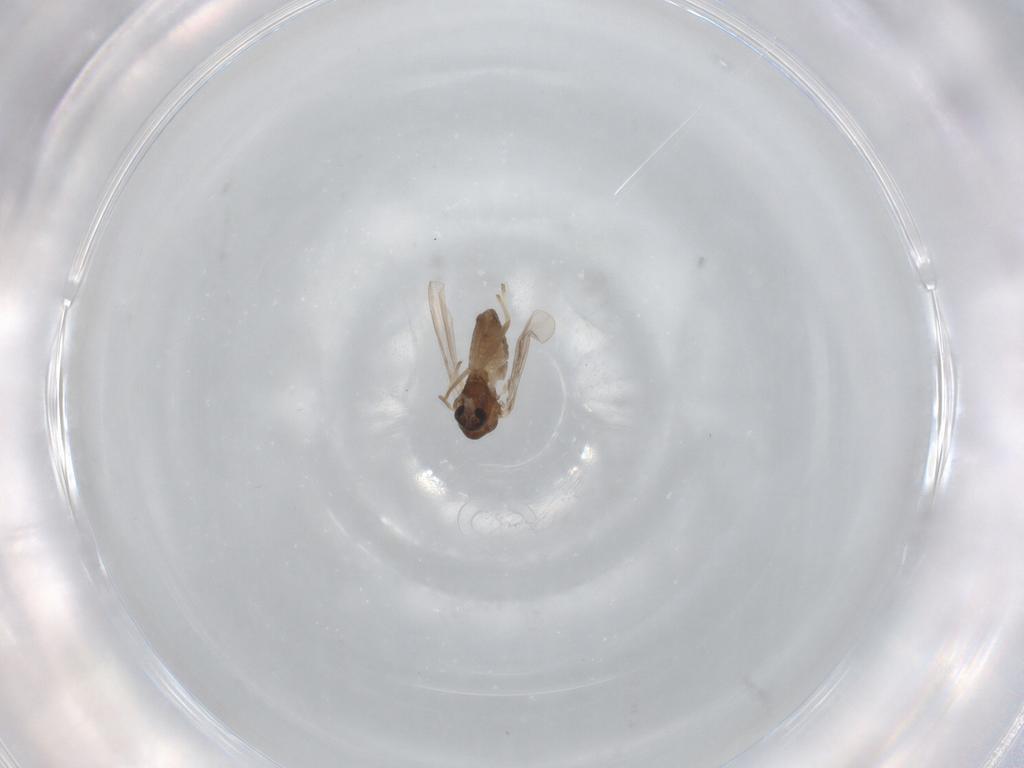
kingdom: Animalia
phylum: Arthropoda
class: Insecta
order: Diptera
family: Chironomidae
